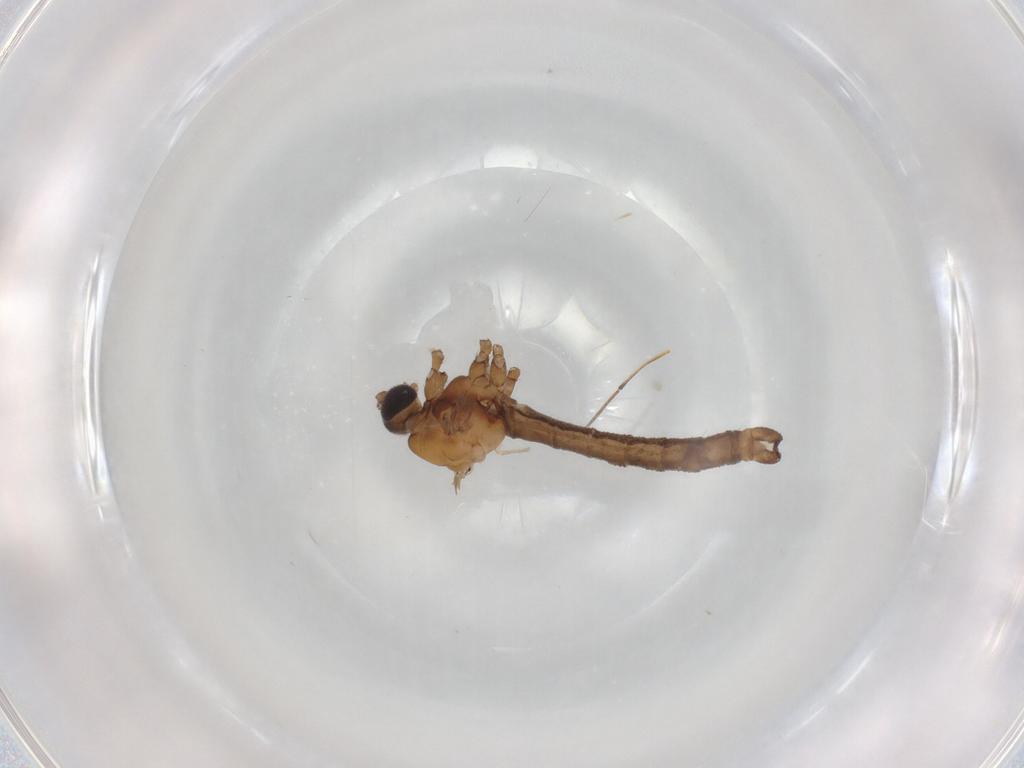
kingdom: Animalia
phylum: Arthropoda
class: Insecta
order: Diptera
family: Limoniidae
